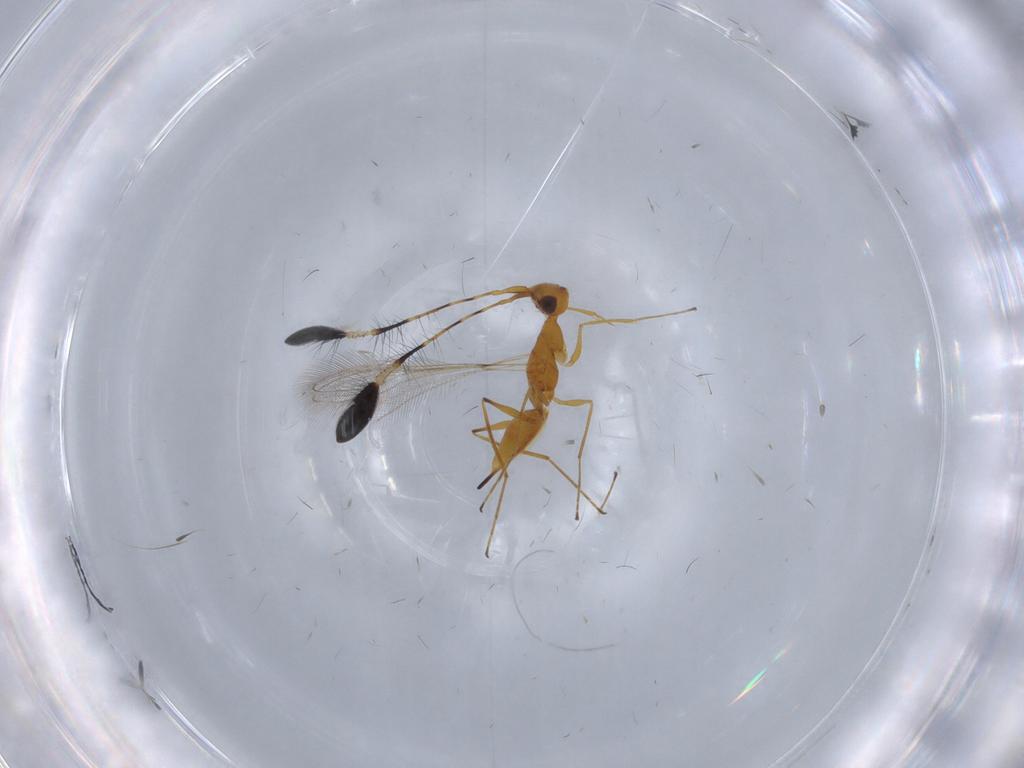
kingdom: Animalia
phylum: Arthropoda
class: Insecta
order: Hymenoptera
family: Mymaridae
